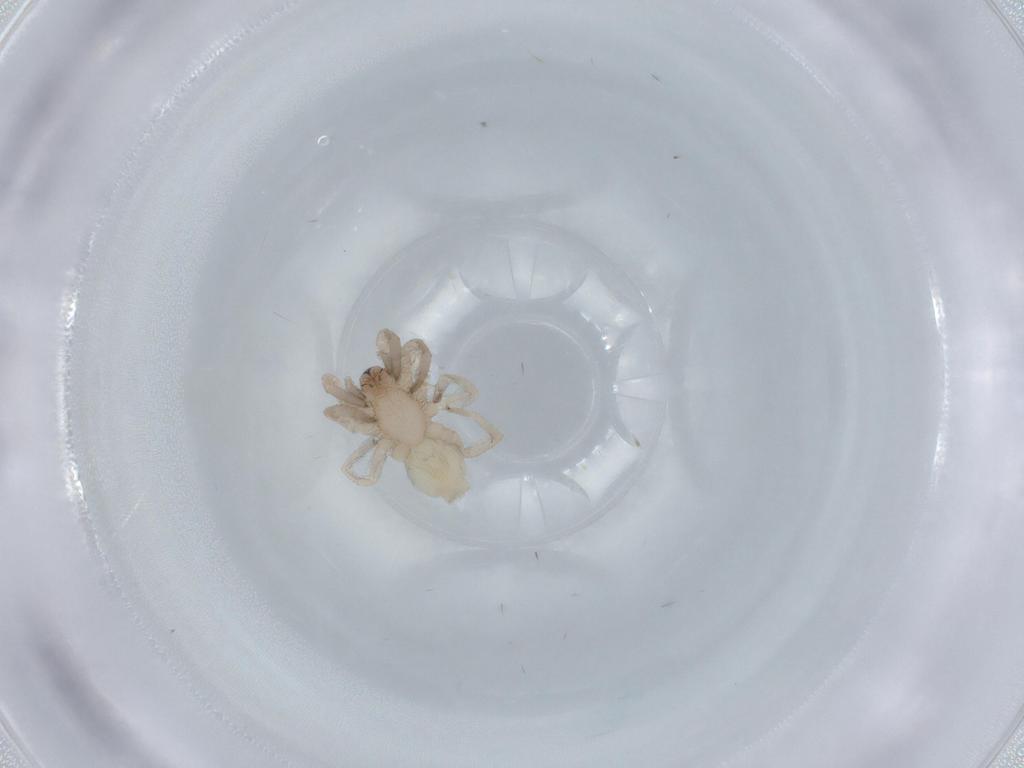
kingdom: Animalia
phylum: Arthropoda
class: Arachnida
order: Araneae
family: Gnaphosidae
